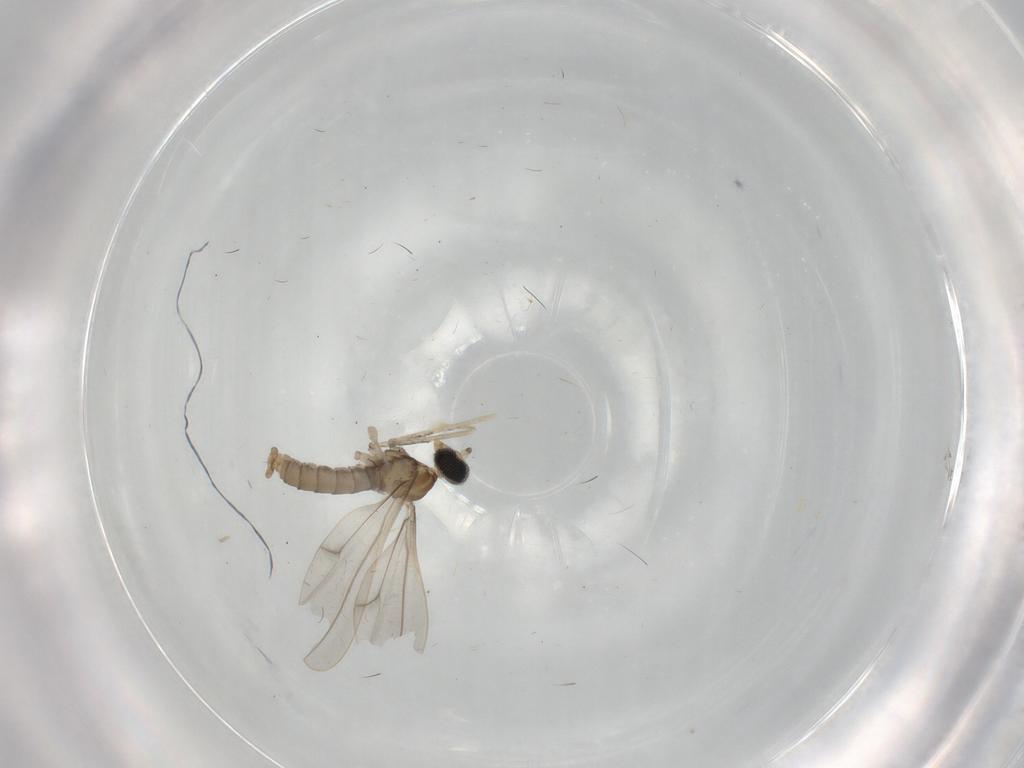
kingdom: Animalia
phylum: Arthropoda
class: Insecta
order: Diptera
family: Cecidomyiidae
